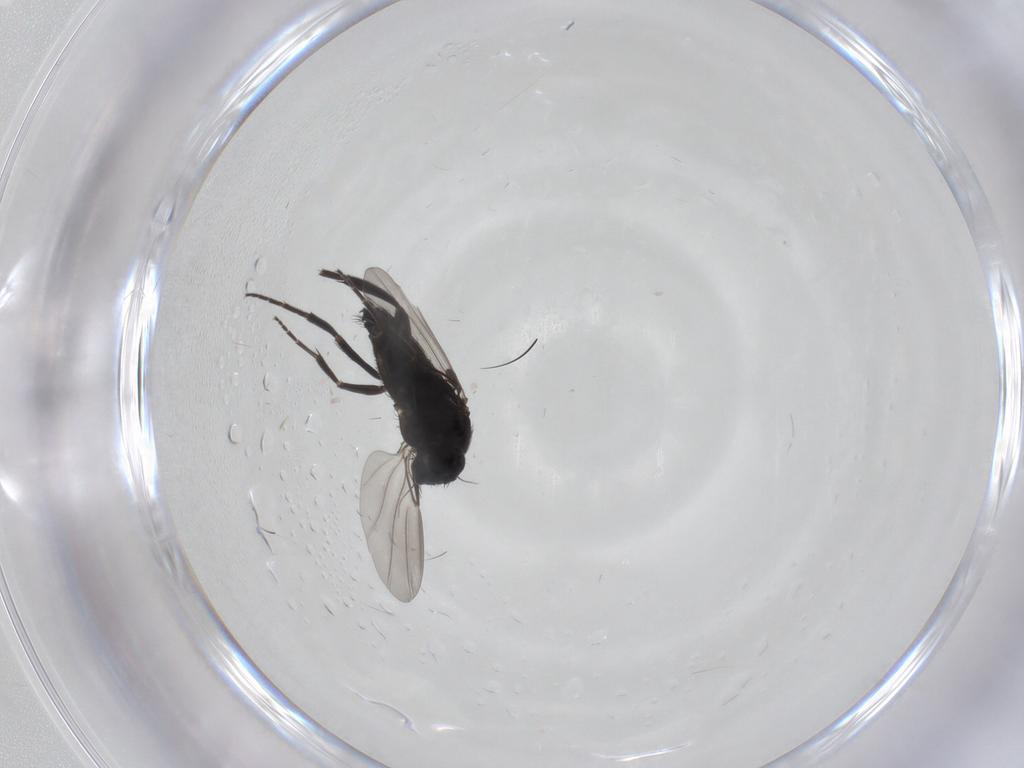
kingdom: Animalia
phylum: Arthropoda
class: Insecta
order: Diptera
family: Phoridae
